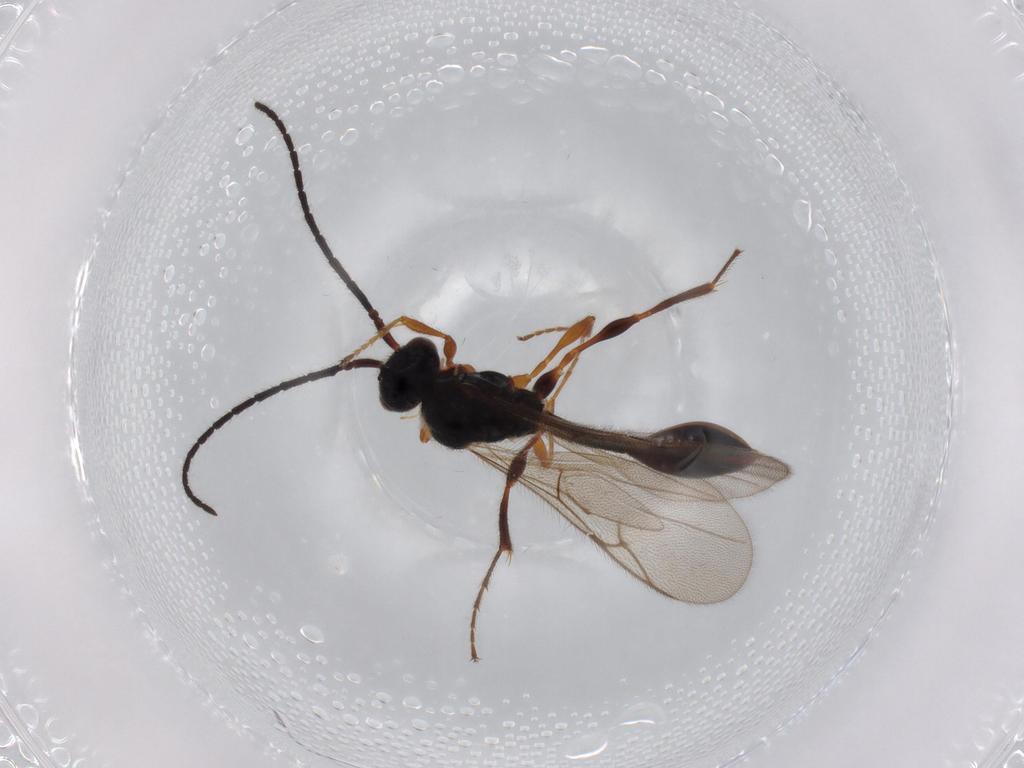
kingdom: Animalia
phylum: Arthropoda
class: Insecta
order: Hymenoptera
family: Diapriidae
